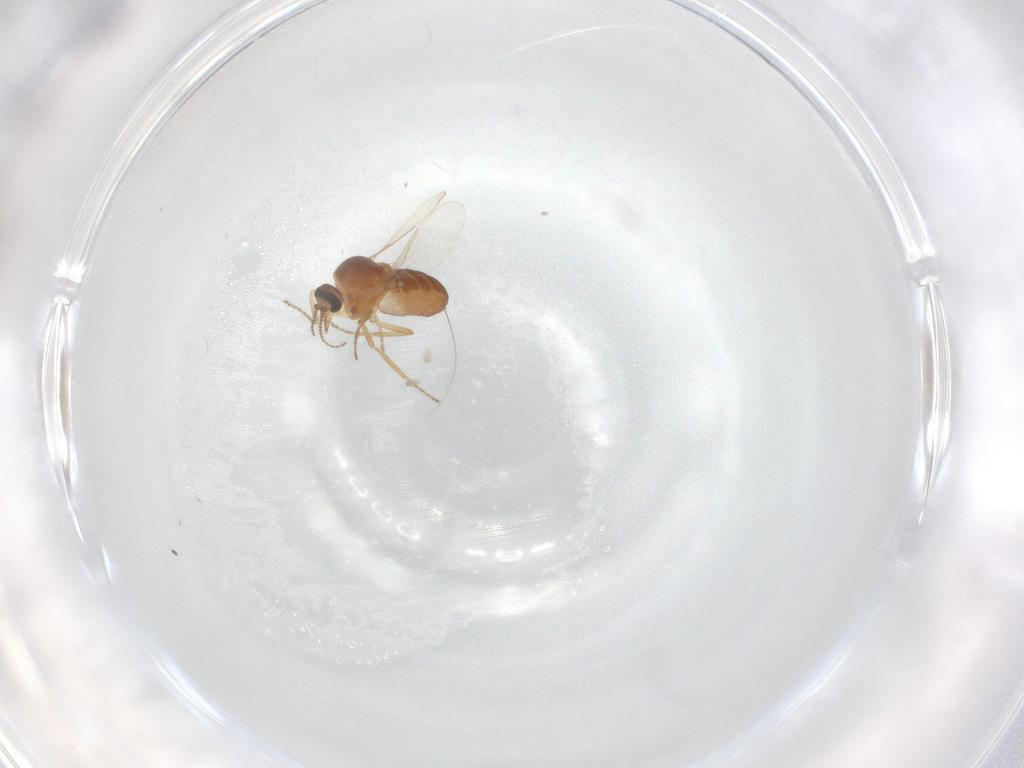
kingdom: Animalia
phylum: Arthropoda
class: Insecta
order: Diptera
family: Ceratopogonidae
